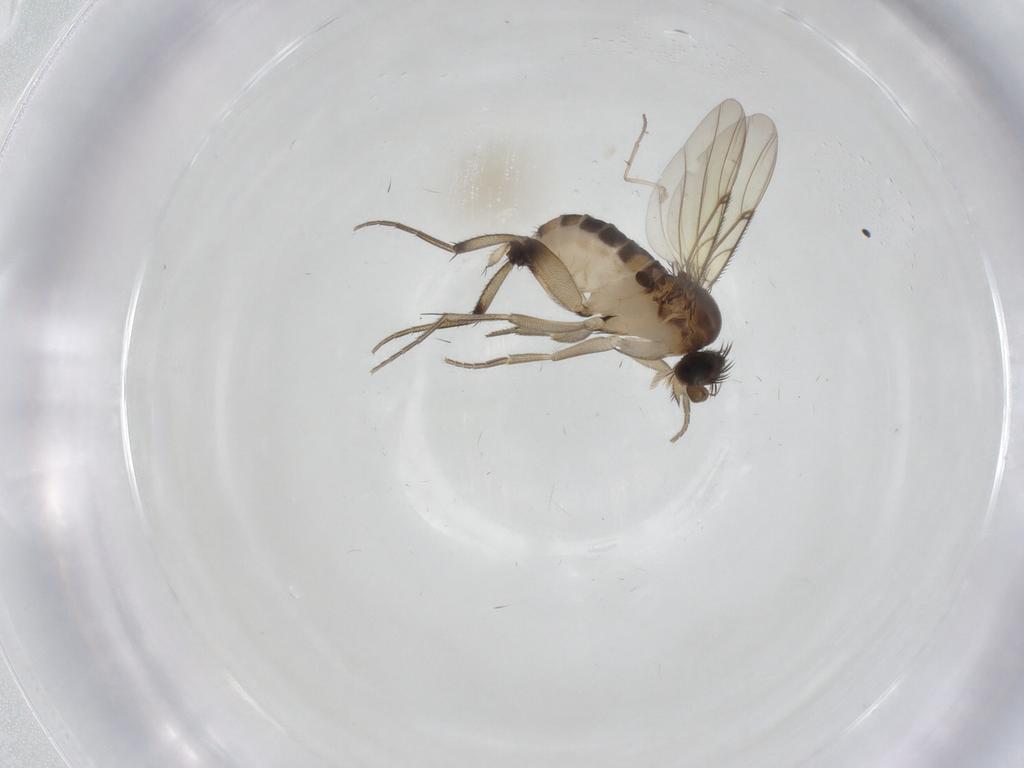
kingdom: Animalia
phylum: Arthropoda
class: Insecta
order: Diptera
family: Phoridae
